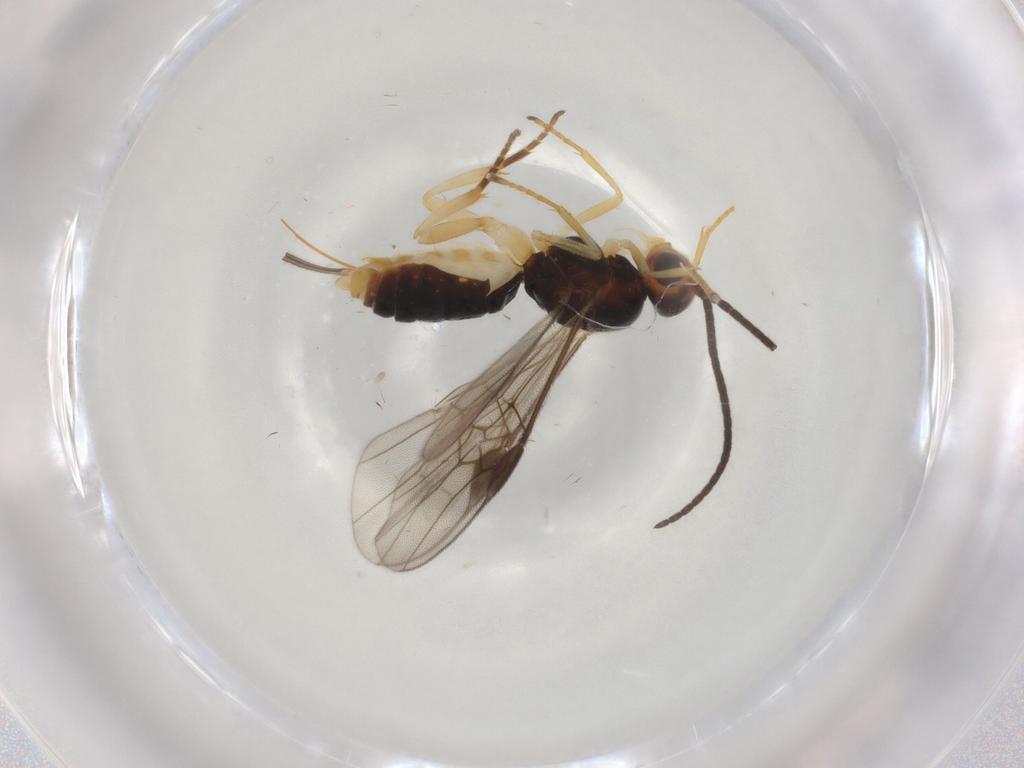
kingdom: Animalia
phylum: Arthropoda
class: Insecta
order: Hymenoptera
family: Braconidae
